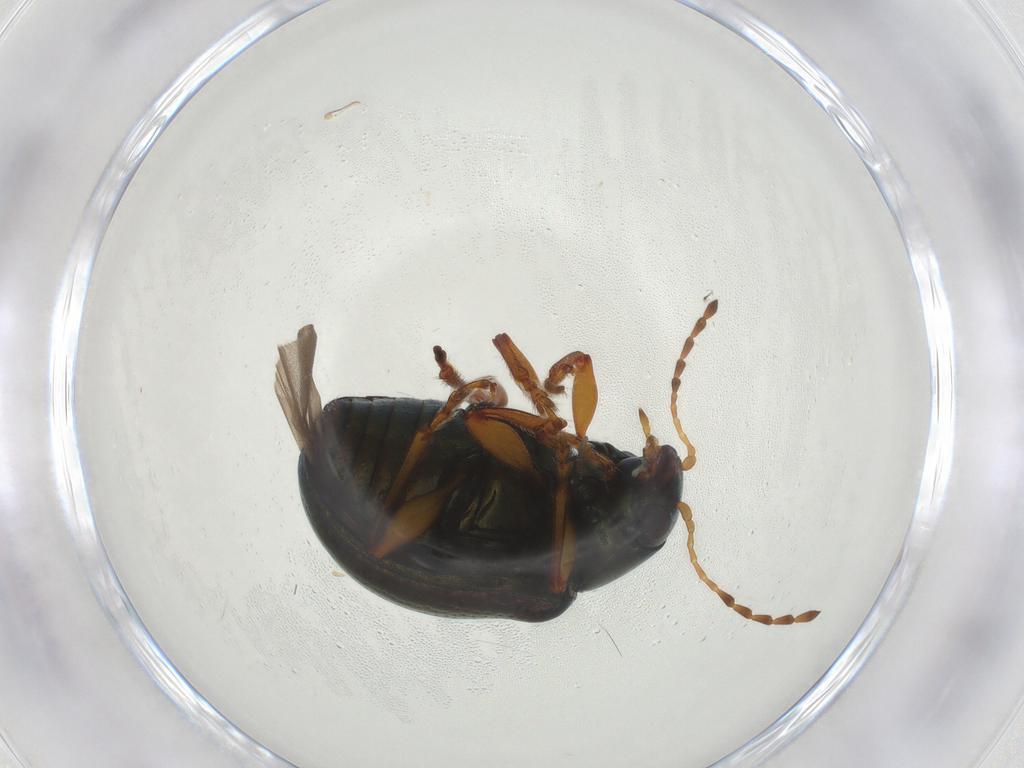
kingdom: Animalia
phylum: Arthropoda
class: Insecta
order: Coleoptera
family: Chrysomelidae
